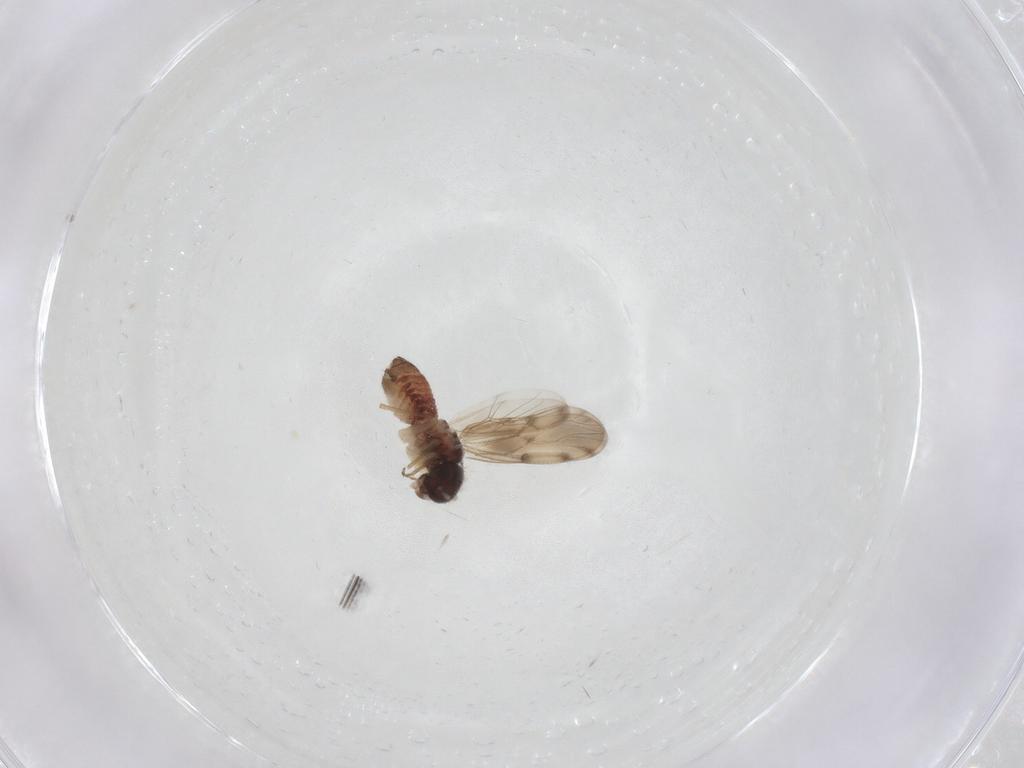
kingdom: Animalia
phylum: Arthropoda
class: Insecta
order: Psocodea
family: Peripsocidae
